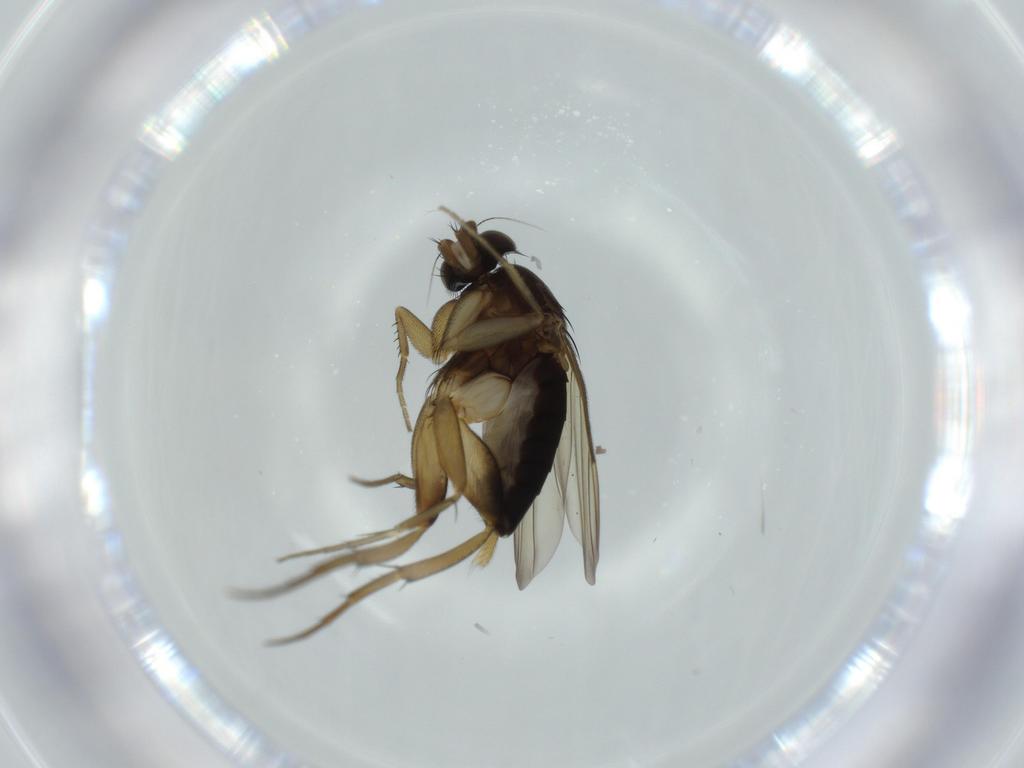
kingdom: Animalia
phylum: Arthropoda
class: Insecta
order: Diptera
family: Phoridae
